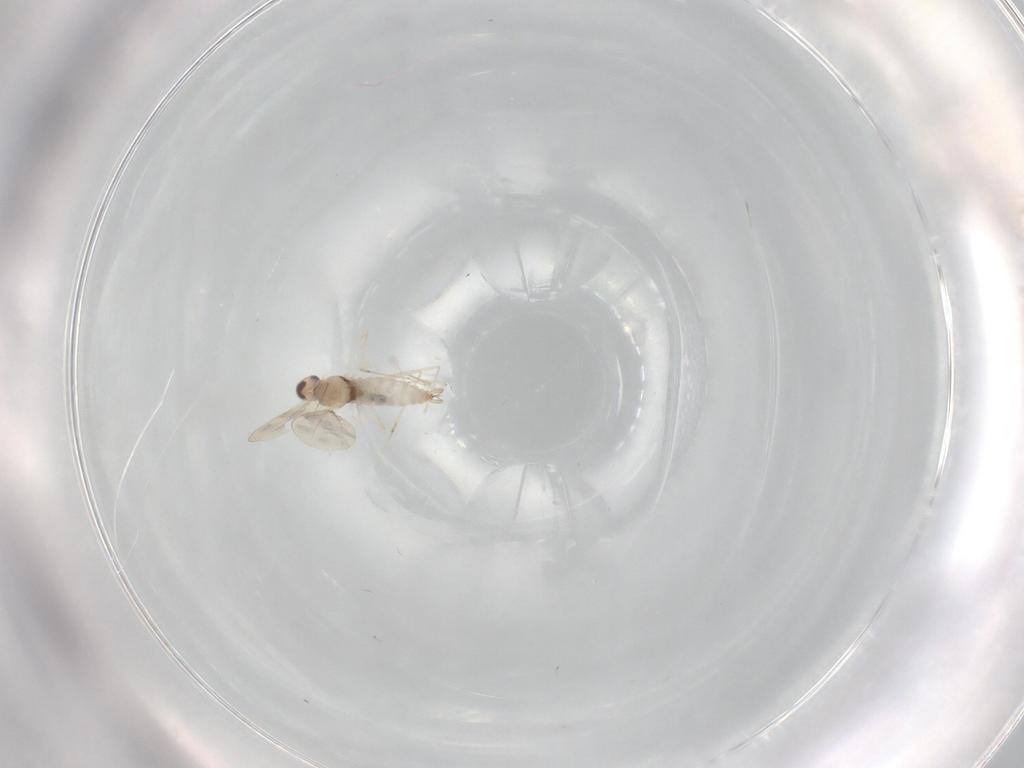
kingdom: Animalia
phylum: Arthropoda
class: Insecta
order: Diptera
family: Cecidomyiidae
